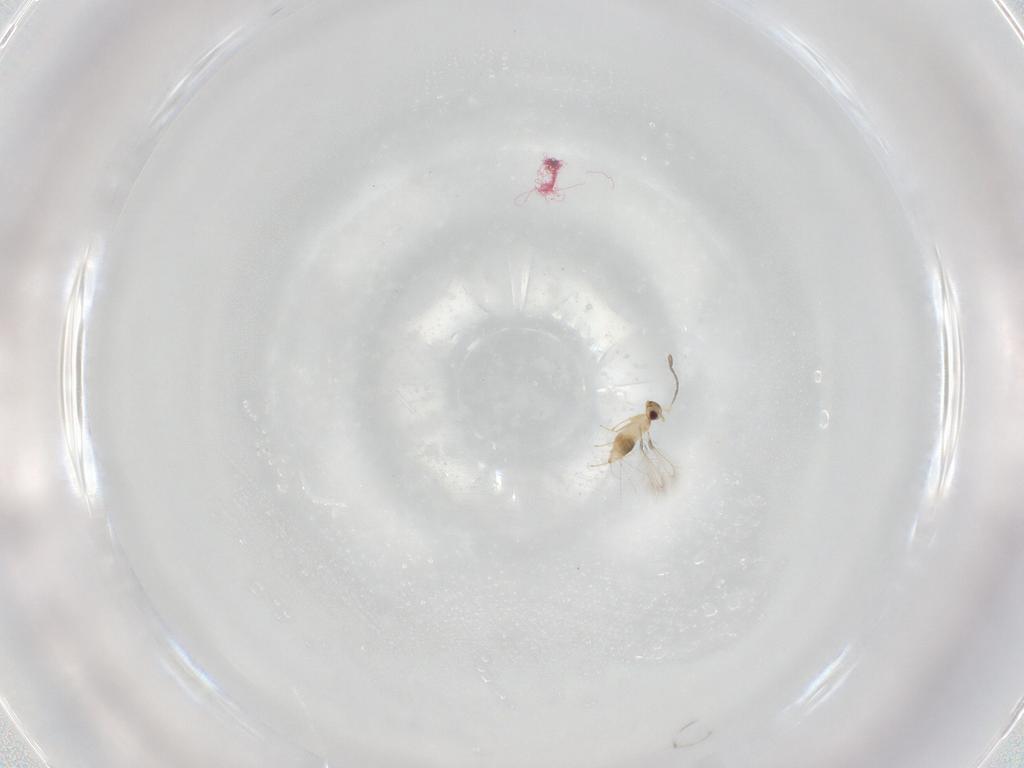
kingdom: Animalia
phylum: Arthropoda
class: Insecta
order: Hymenoptera
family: Mymaridae
